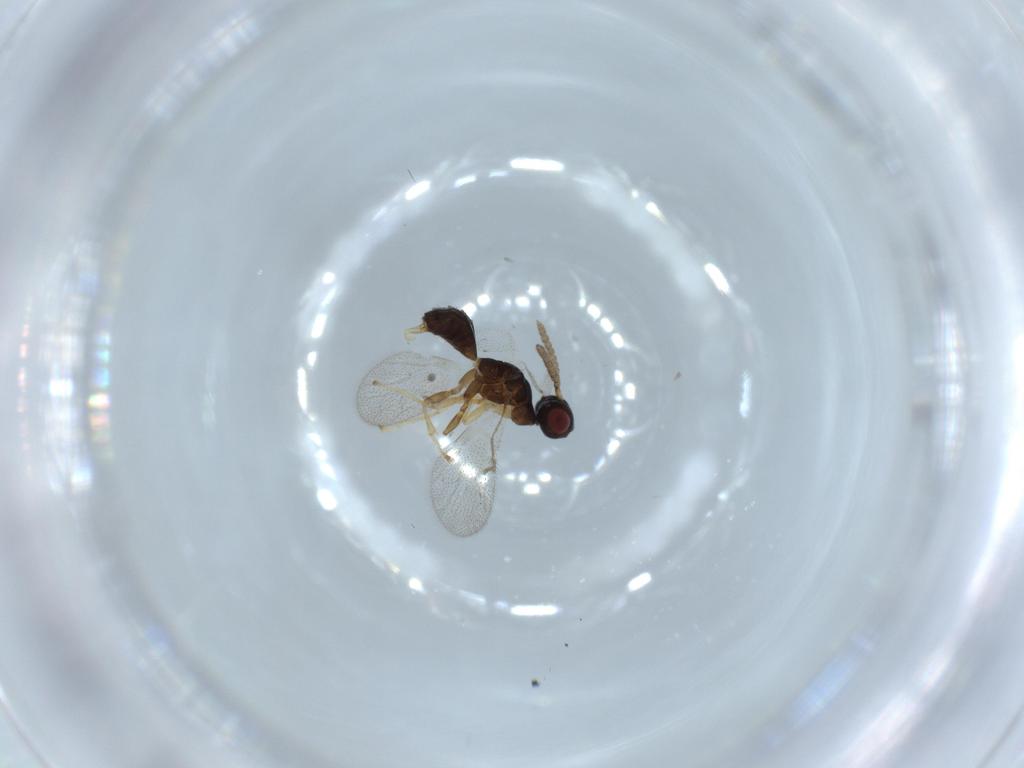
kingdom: Animalia
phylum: Arthropoda
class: Insecta
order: Hymenoptera
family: Agaonidae
